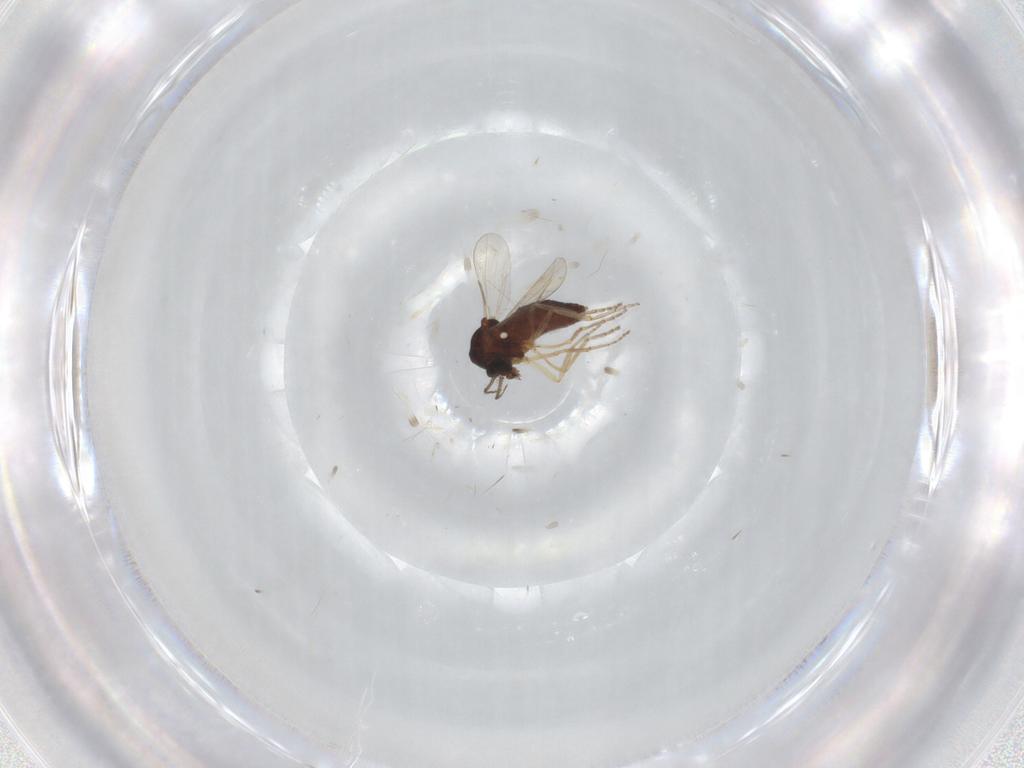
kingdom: Animalia
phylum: Arthropoda
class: Insecta
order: Diptera
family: Ceratopogonidae
